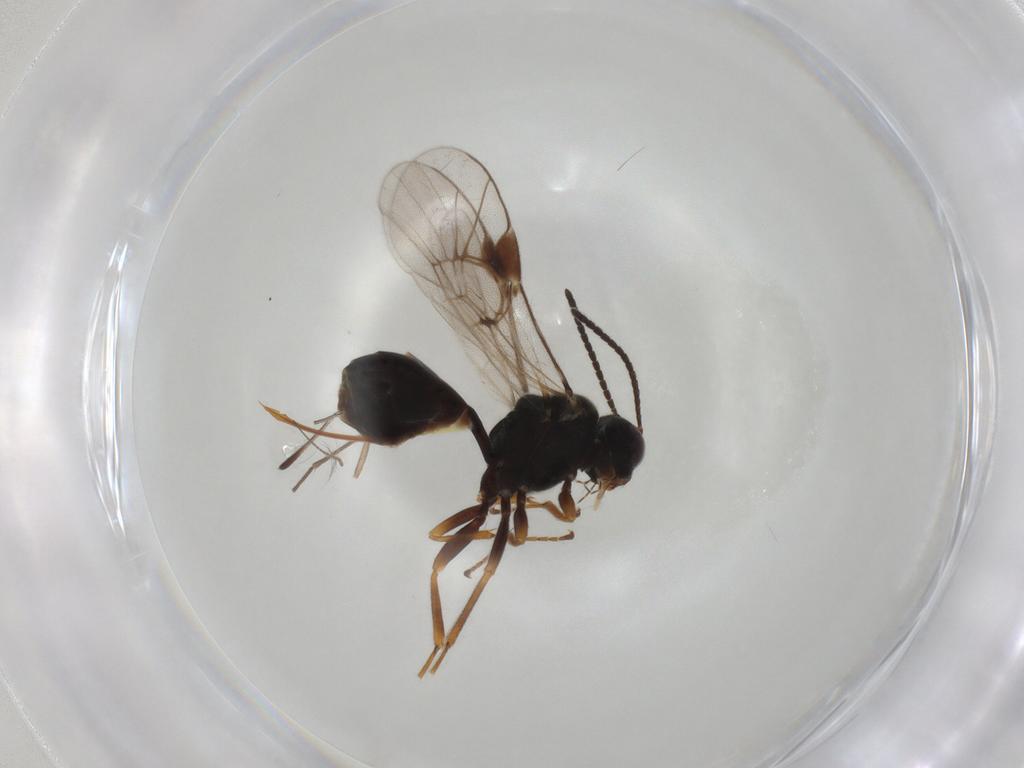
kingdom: Animalia
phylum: Arthropoda
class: Insecta
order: Hymenoptera
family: Ichneumonidae
